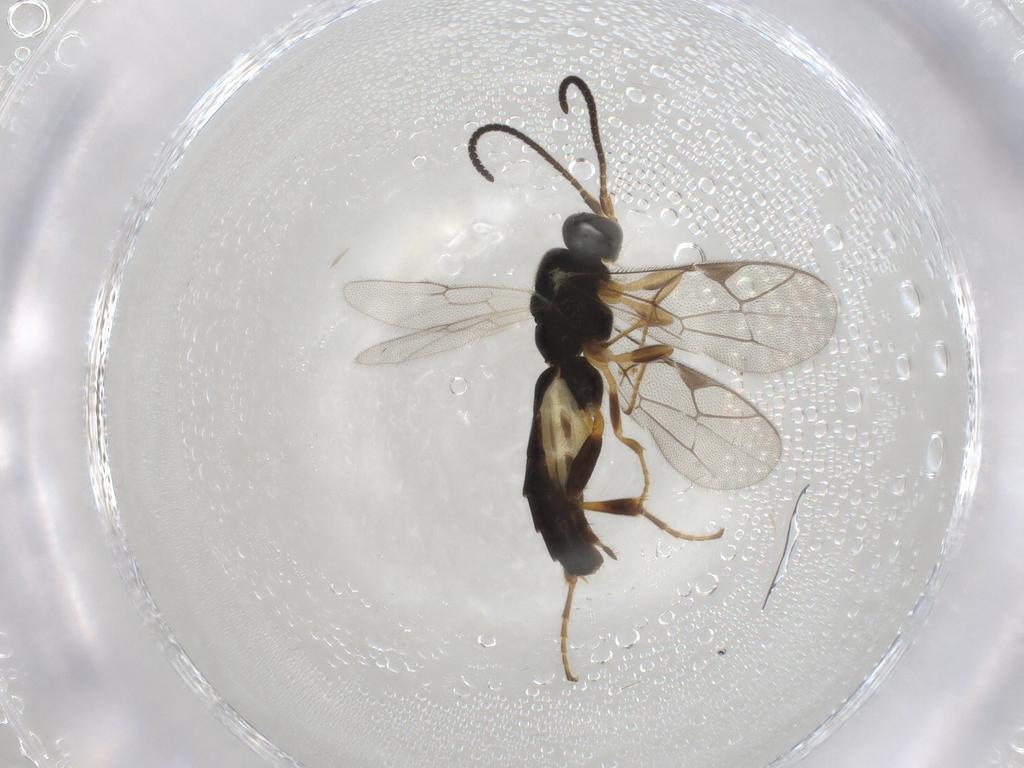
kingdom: Animalia
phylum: Arthropoda
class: Insecta
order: Hymenoptera
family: Ichneumonidae
